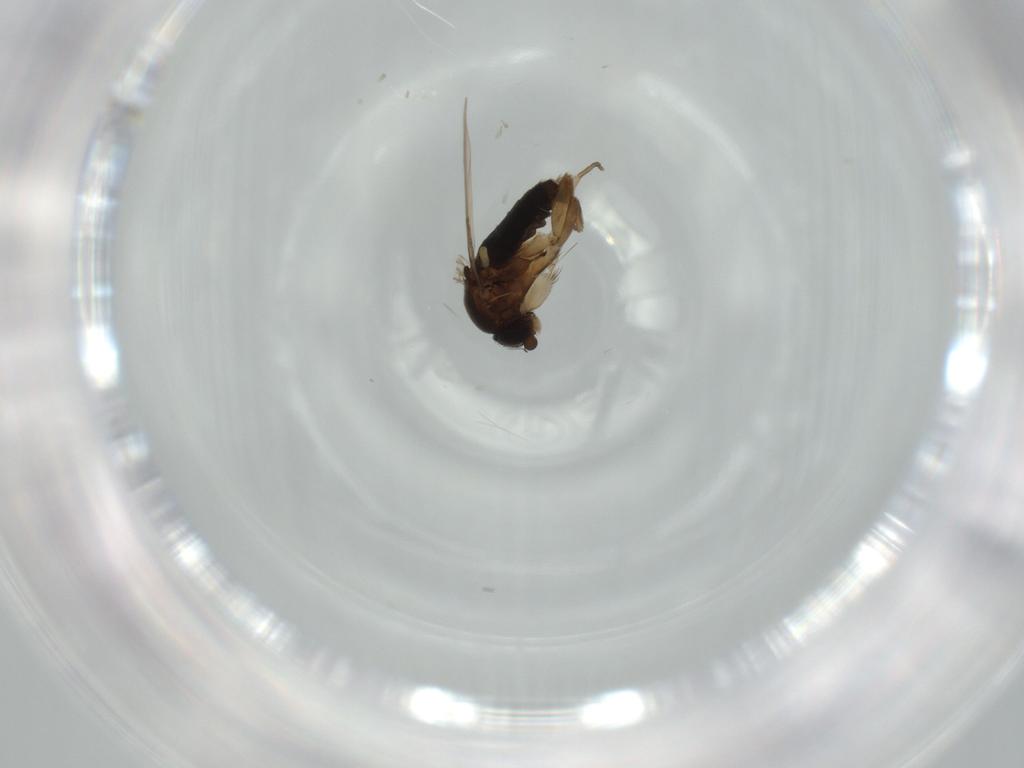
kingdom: Animalia
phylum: Arthropoda
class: Insecta
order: Diptera
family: Phoridae
